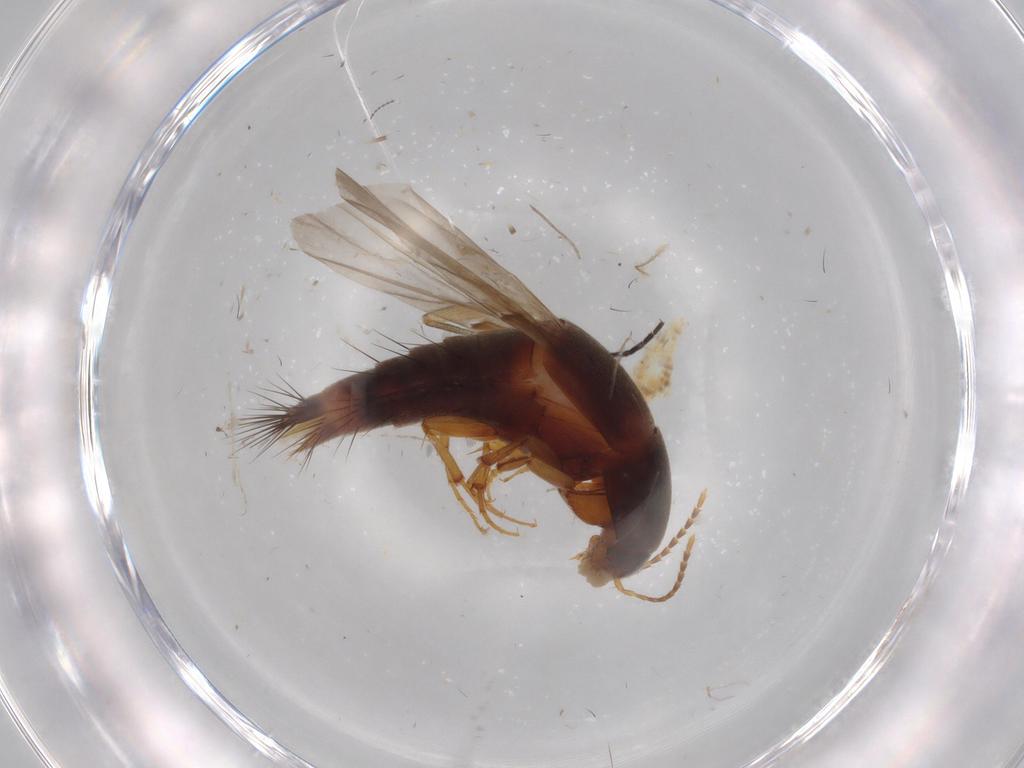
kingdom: Animalia
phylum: Arthropoda
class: Insecta
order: Coleoptera
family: Staphylinidae
